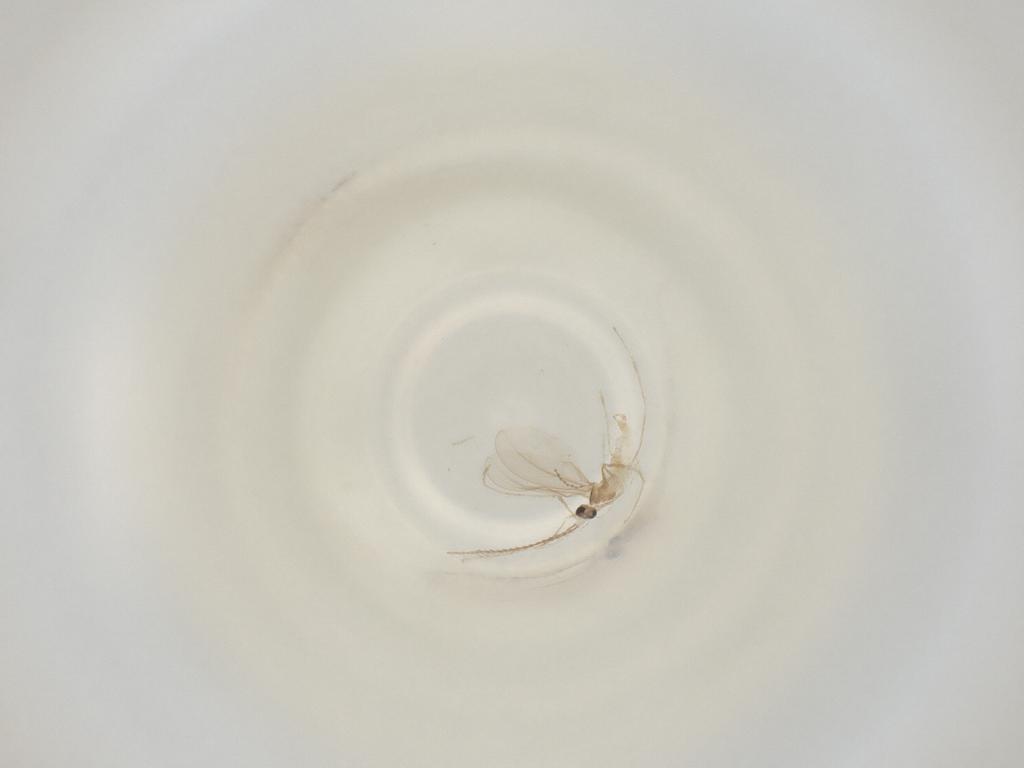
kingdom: Animalia
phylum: Arthropoda
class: Insecta
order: Diptera
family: Cecidomyiidae
